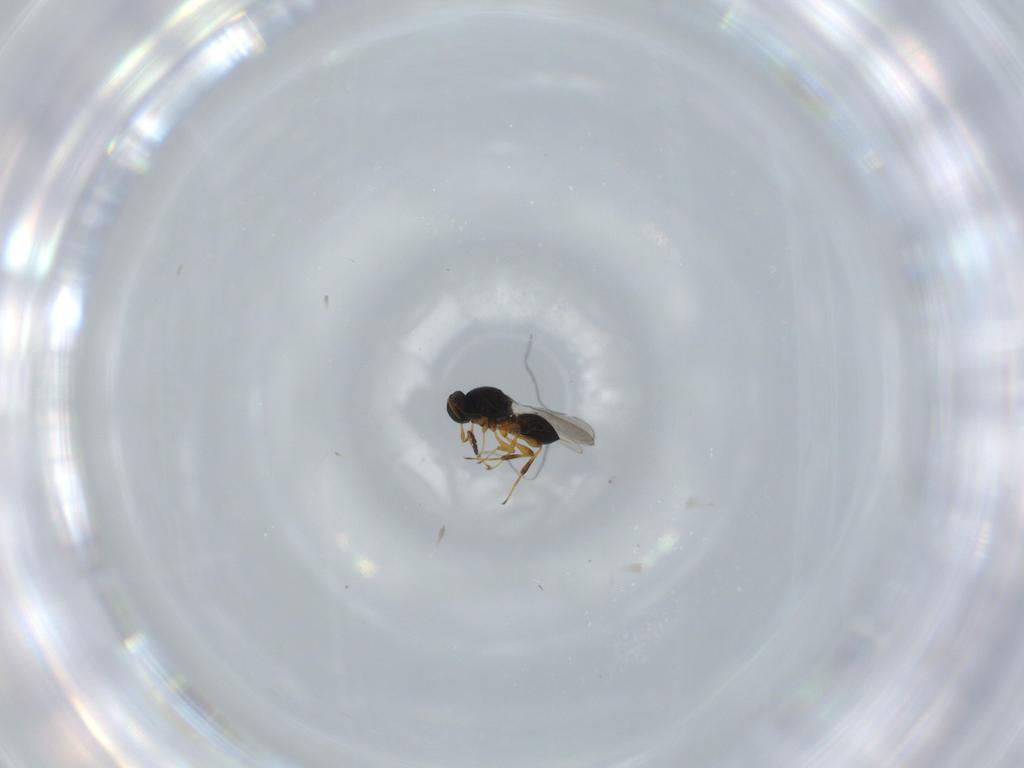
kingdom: Animalia
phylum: Arthropoda
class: Insecta
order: Hymenoptera
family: Platygastridae
